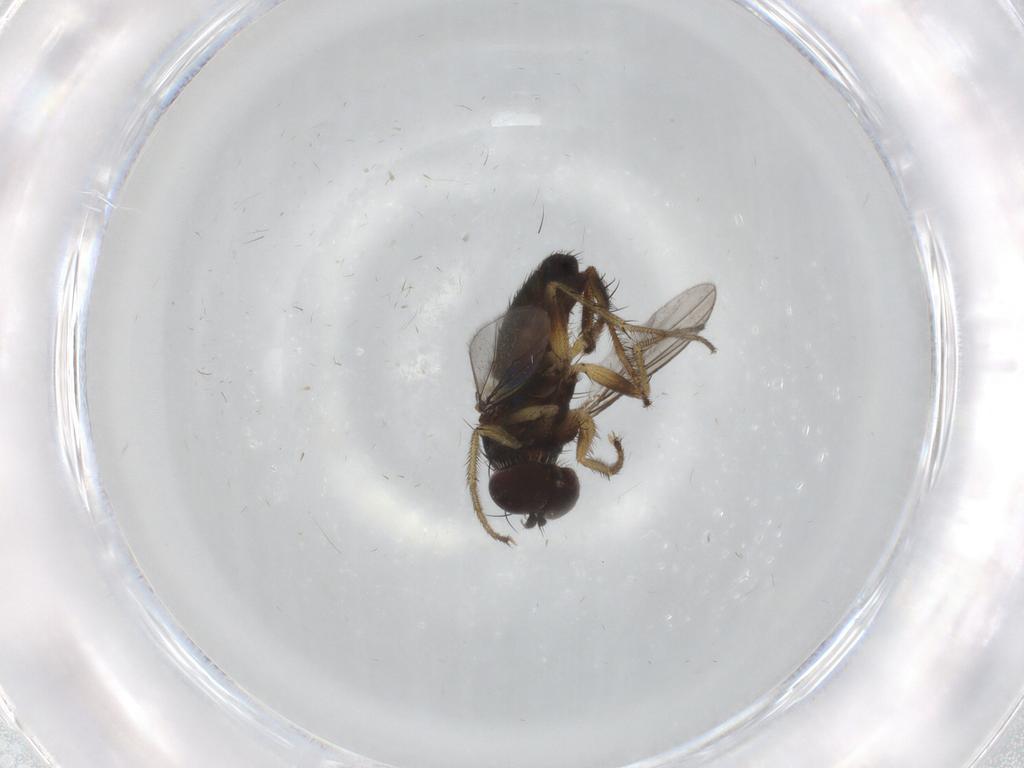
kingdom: Animalia
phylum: Arthropoda
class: Insecta
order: Diptera
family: Dolichopodidae
